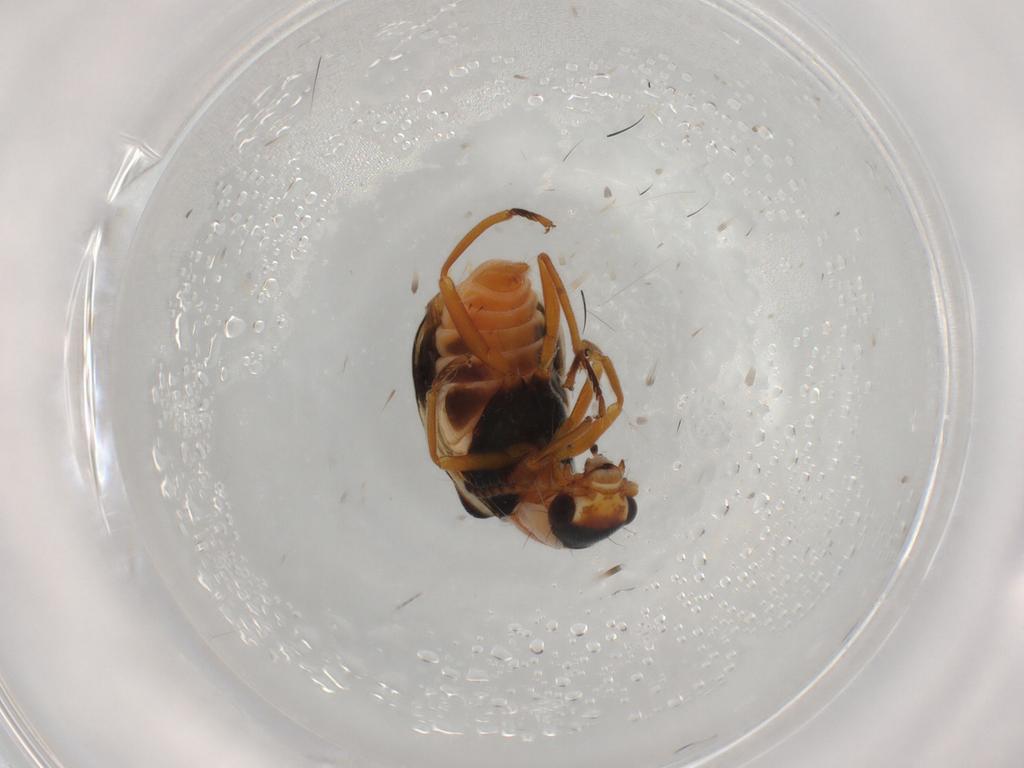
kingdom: Animalia
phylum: Arthropoda
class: Insecta
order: Coleoptera
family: Melyridae
